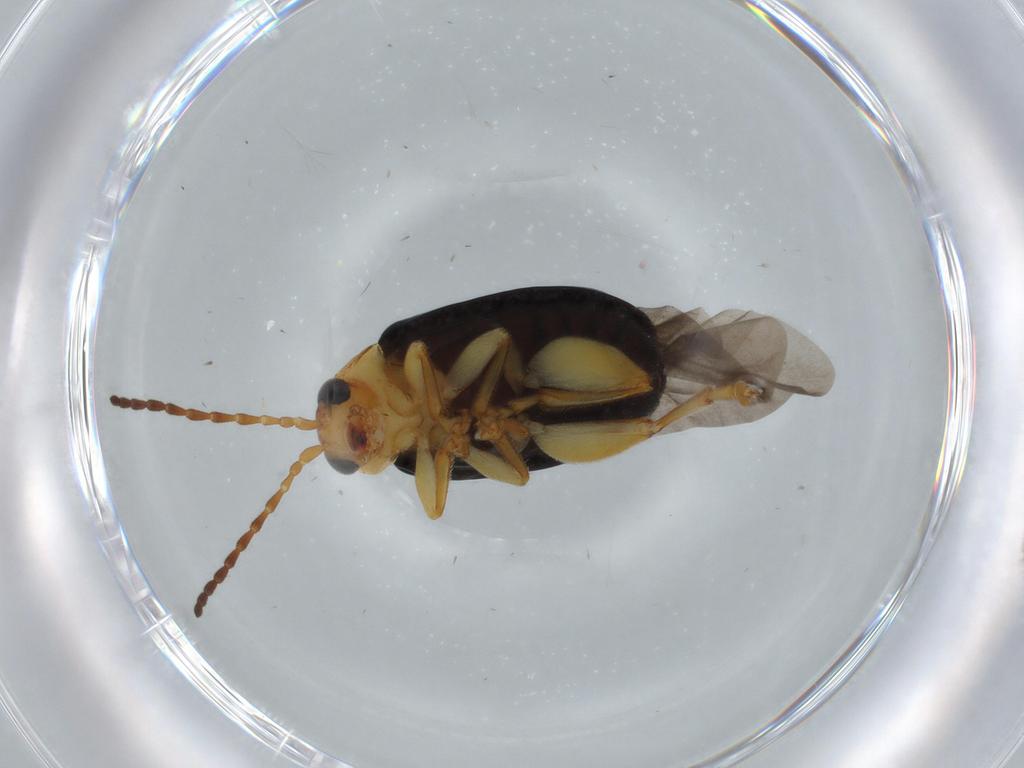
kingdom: Animalia
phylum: Arthropoda
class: Insecta
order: Coleoptera
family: Chrysomelidae
